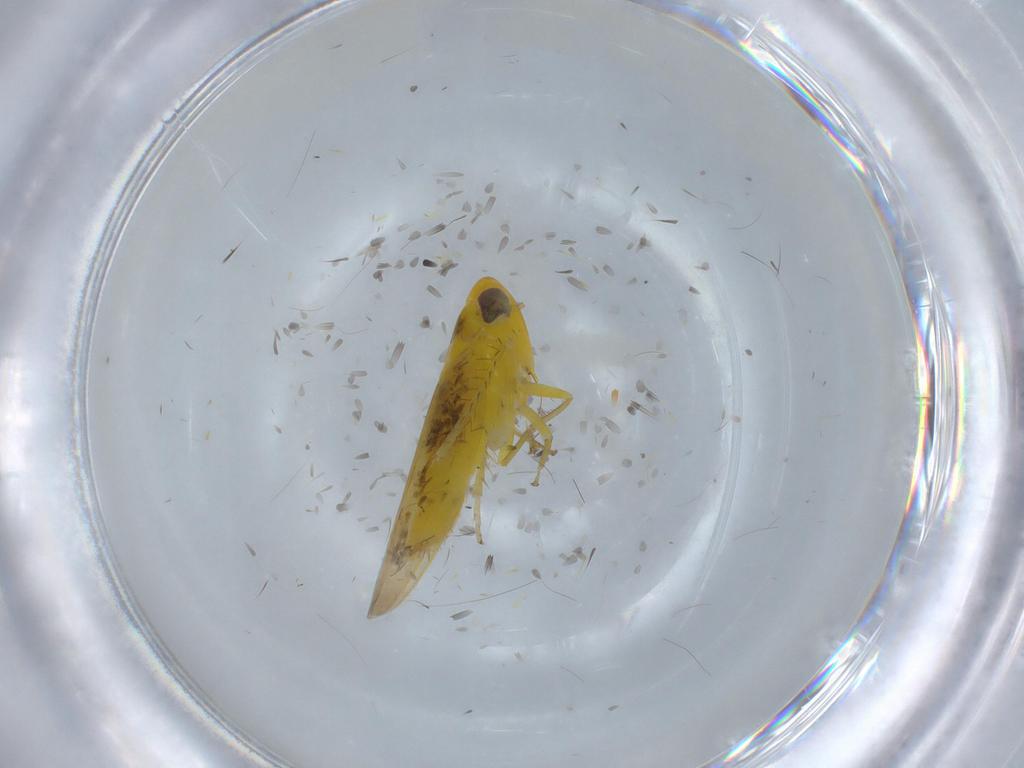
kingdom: Animalia
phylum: Arthropoda
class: Insecta
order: Hemiptera
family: Cicadellidae
